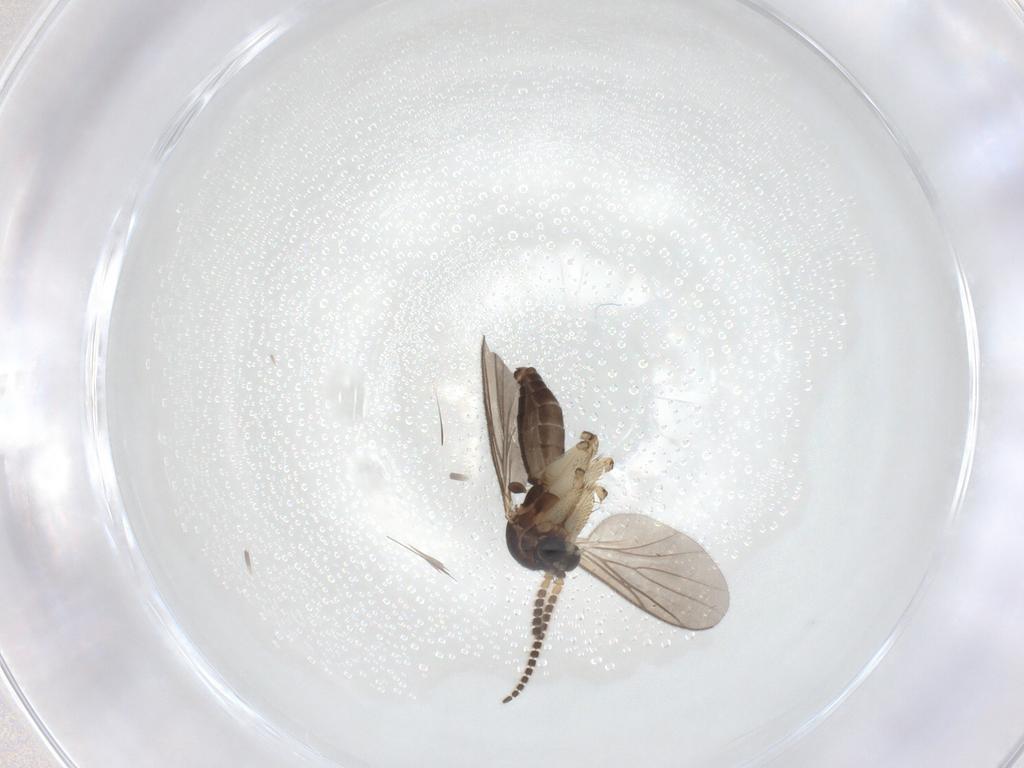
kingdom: Animalia
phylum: Arthropoda
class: Insecta
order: Diptera
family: Mycetophilidae
